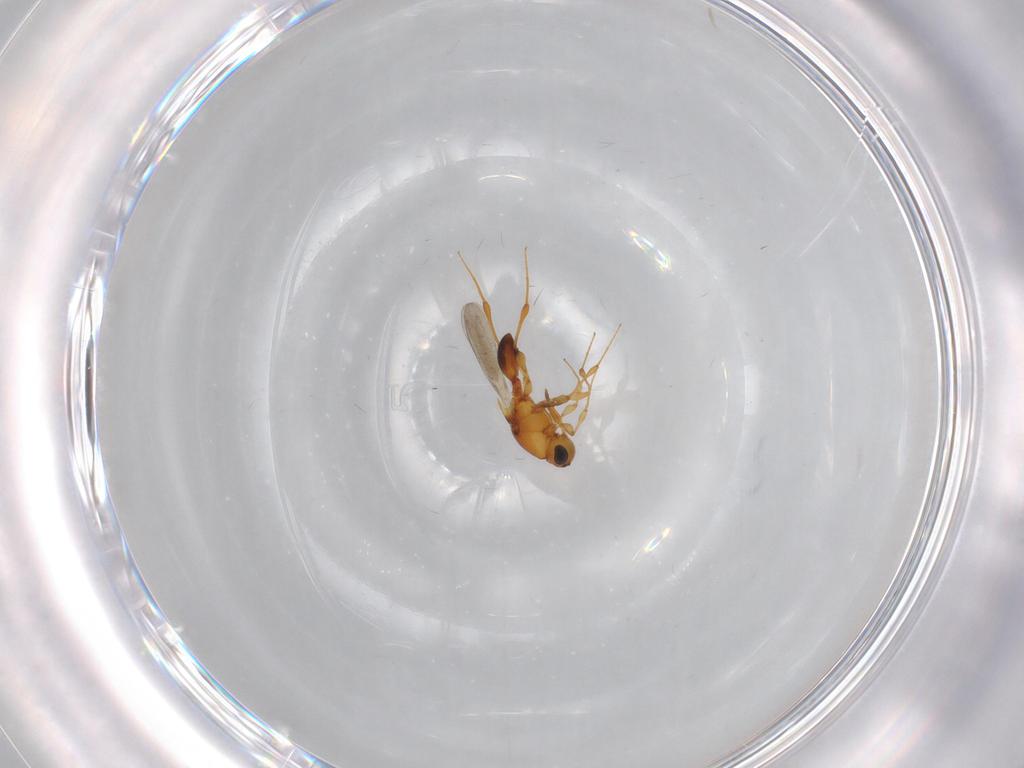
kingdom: Animalia
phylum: Arthropoda
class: Insecta
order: Hymenoptera
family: Platygastridae
